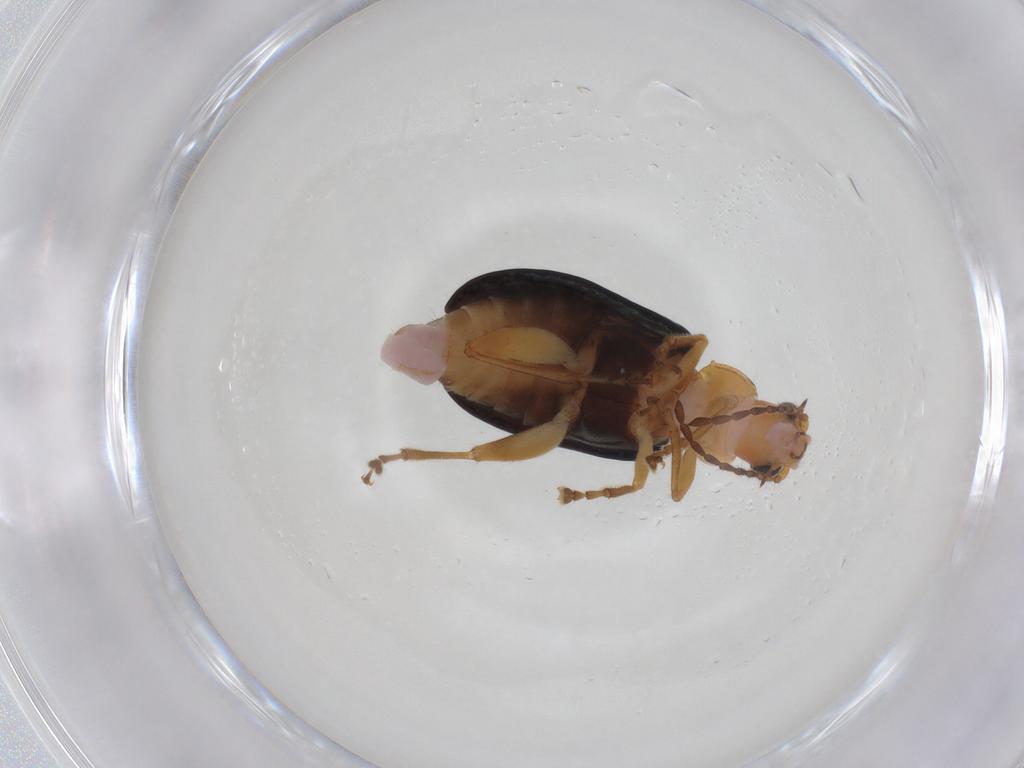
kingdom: Animalia
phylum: Arthropoda
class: Insecta
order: Coleoptera
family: Chrysomelidae
